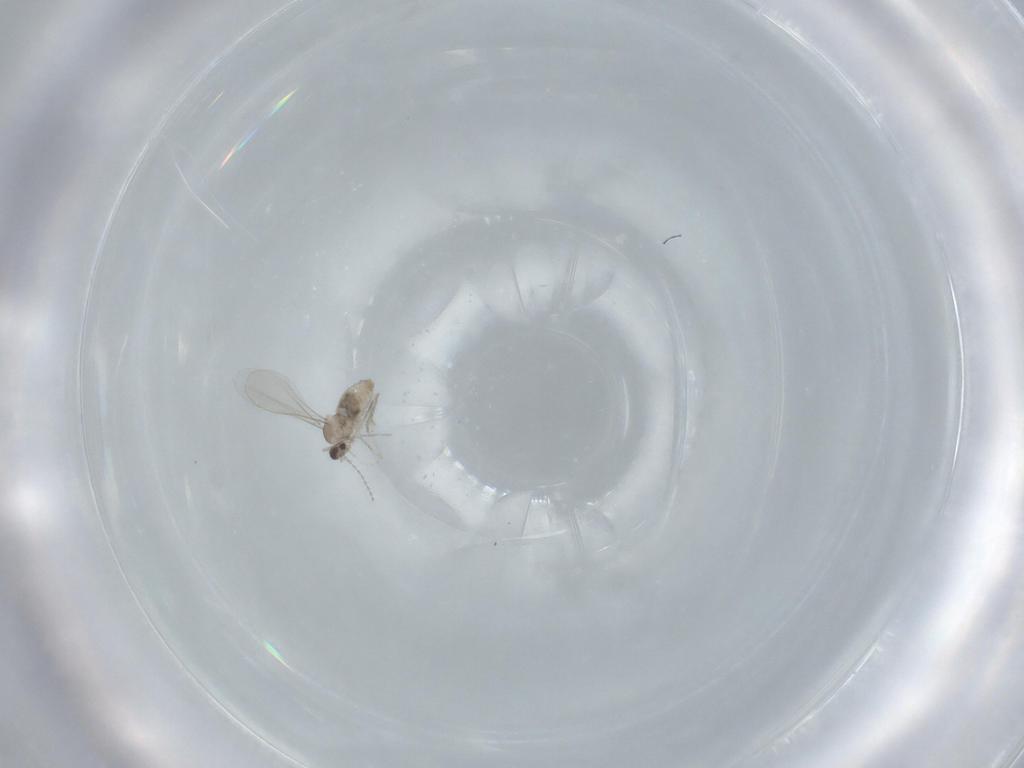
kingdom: Animalia
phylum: Arthropoda
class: Insecta
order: Diptera
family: Cecidomyiidae
